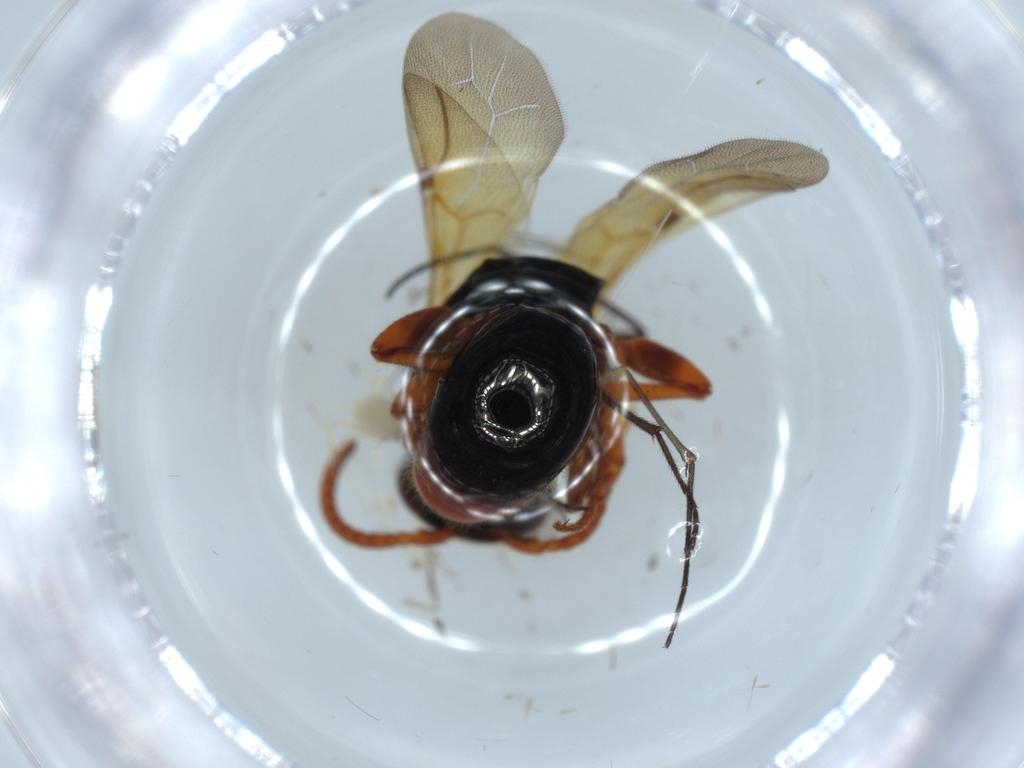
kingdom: Animalia
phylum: Arthropoda
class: Insecta
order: Hymenoptera
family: Bethylidae
